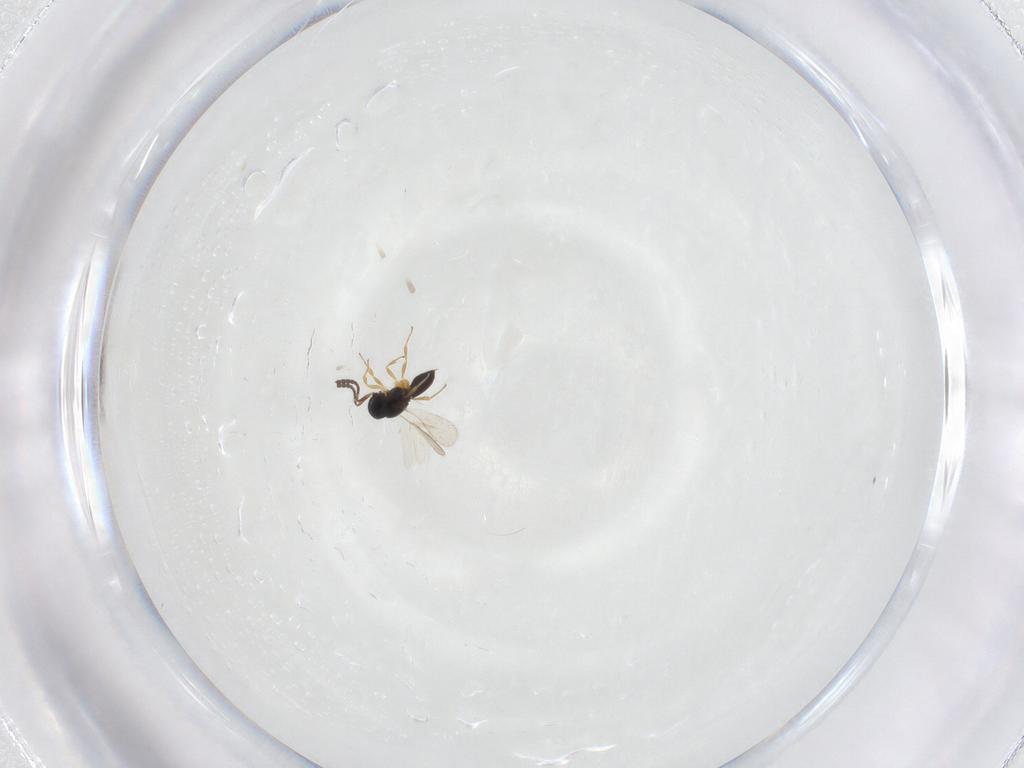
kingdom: Animalia
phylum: Arthropoda
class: Insecta
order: Hymenoptera
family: Scelionidae
